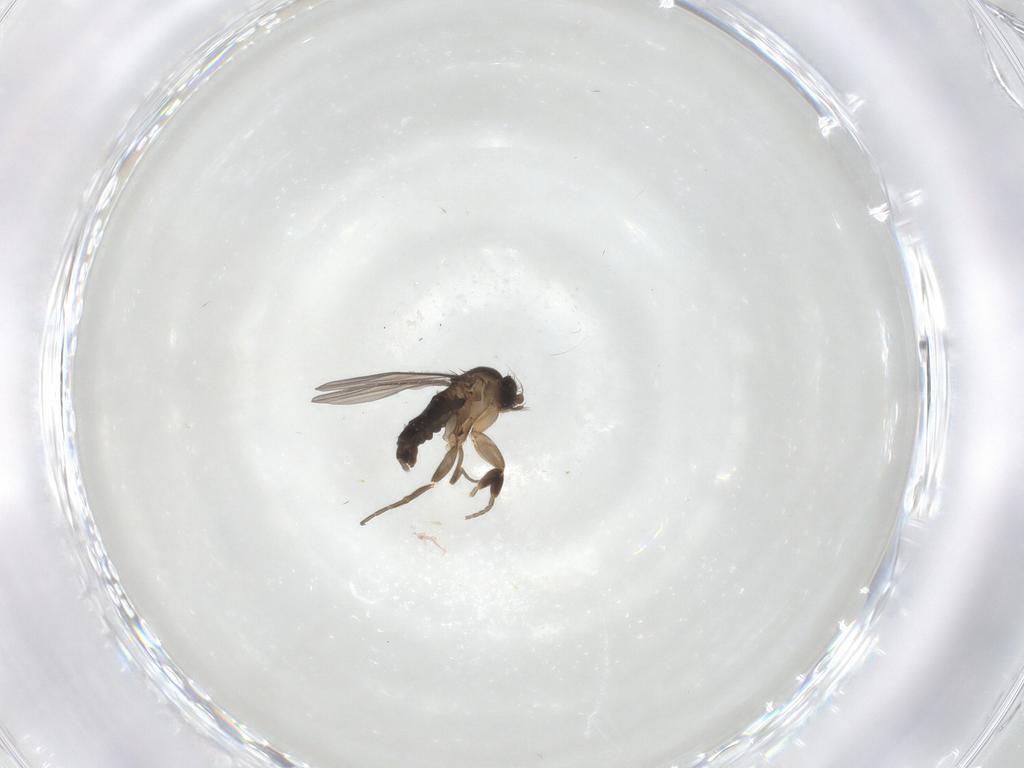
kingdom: Animalia
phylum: Arthropoda
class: Insecta
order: Diptera
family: Phoridae
